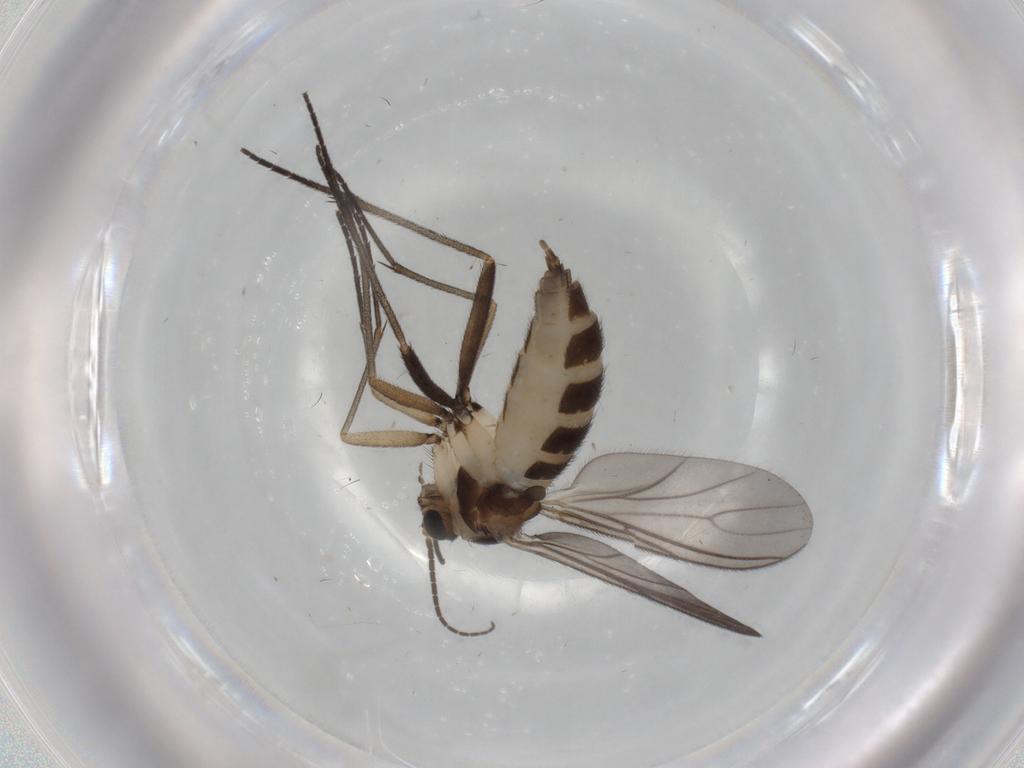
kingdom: Animalia
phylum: Arthropoda
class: Insecta
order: Diptera
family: Sciaridae
